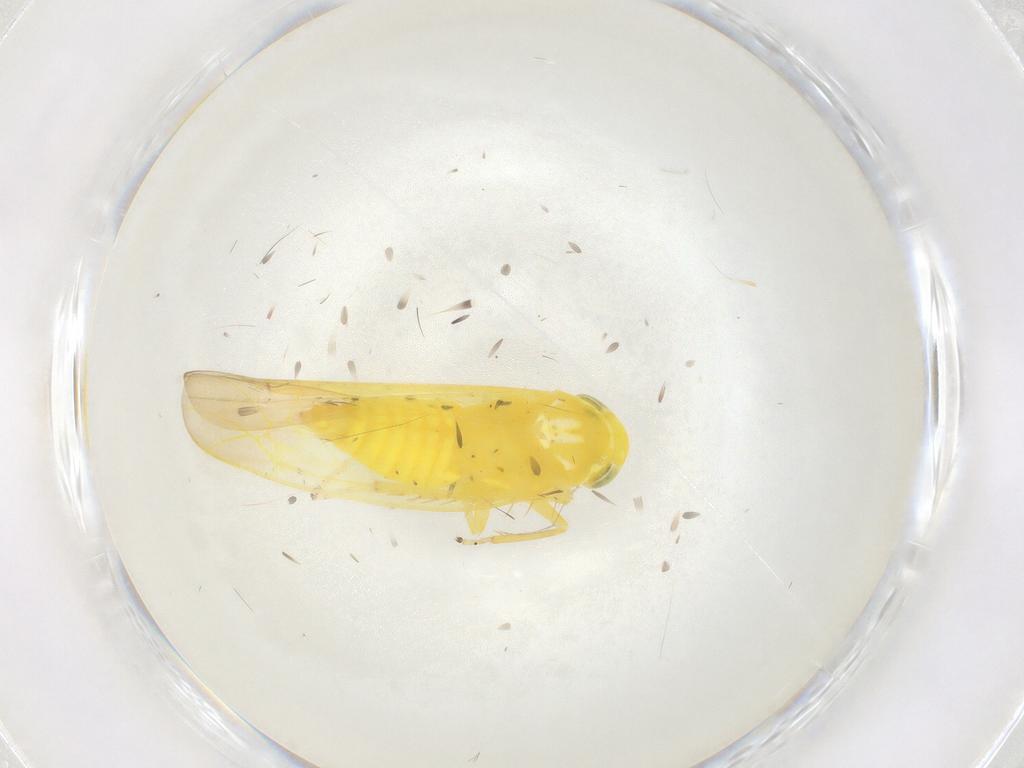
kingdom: Animalia
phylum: Arthropoda
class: Insecta
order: Hemiptera
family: Cicadellidae
